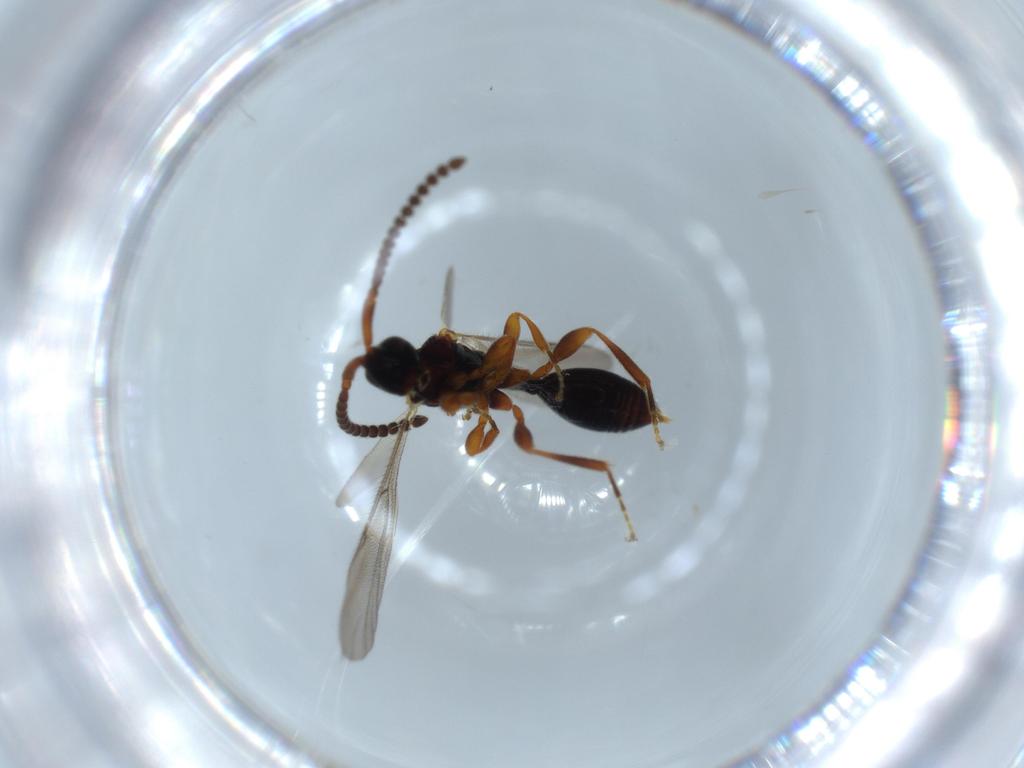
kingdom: Animalia
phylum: Arthropoda
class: Insecta
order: Hymenoptera
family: Diapriidae
